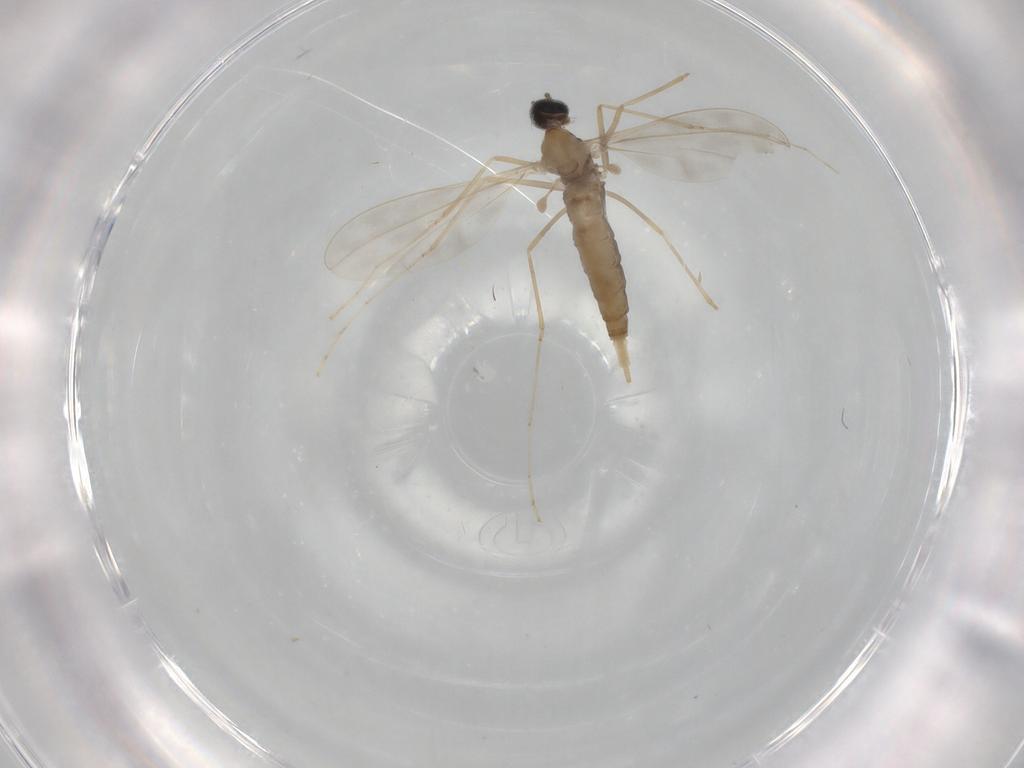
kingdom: Animalia
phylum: Arthropoda
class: Insecta
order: Diptera
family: Cecidomyiidae
